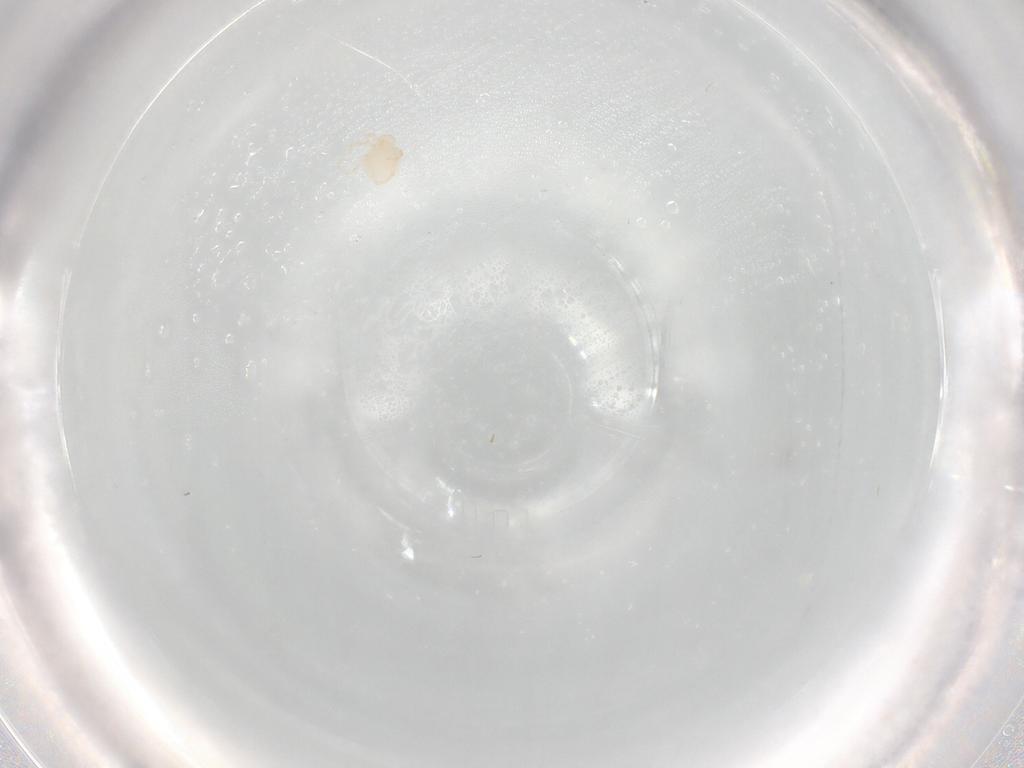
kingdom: Animalia
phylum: Arthropoda
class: Arachnida
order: Trombidiformes
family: Sperchontidae
